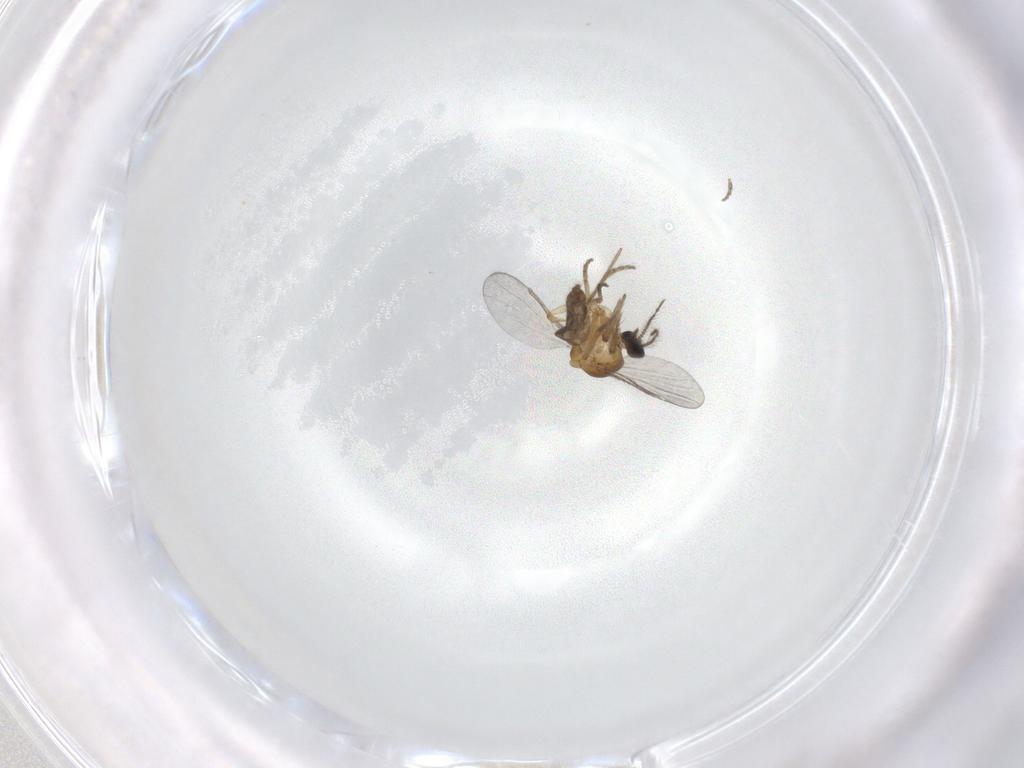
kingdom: Animalia
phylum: Arthropoda
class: Insecta
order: Diptera
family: Ceratopogonidae
